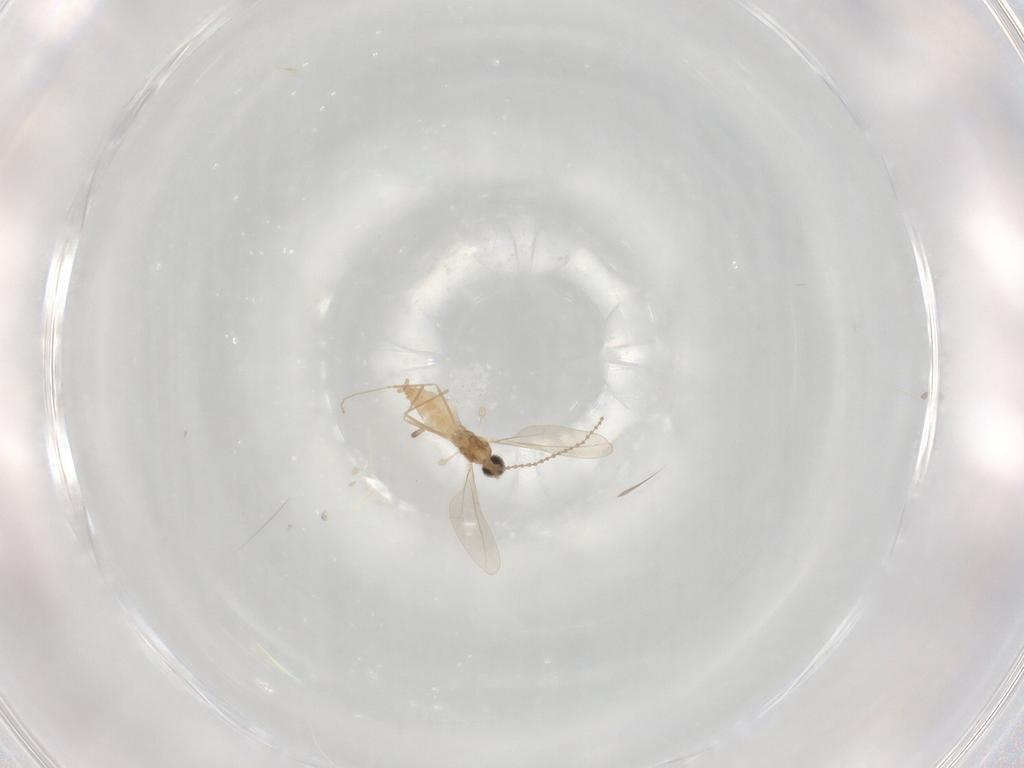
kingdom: Animalia
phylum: Arthropoda
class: Insecta
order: Diptera
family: Cecidomyiidae
